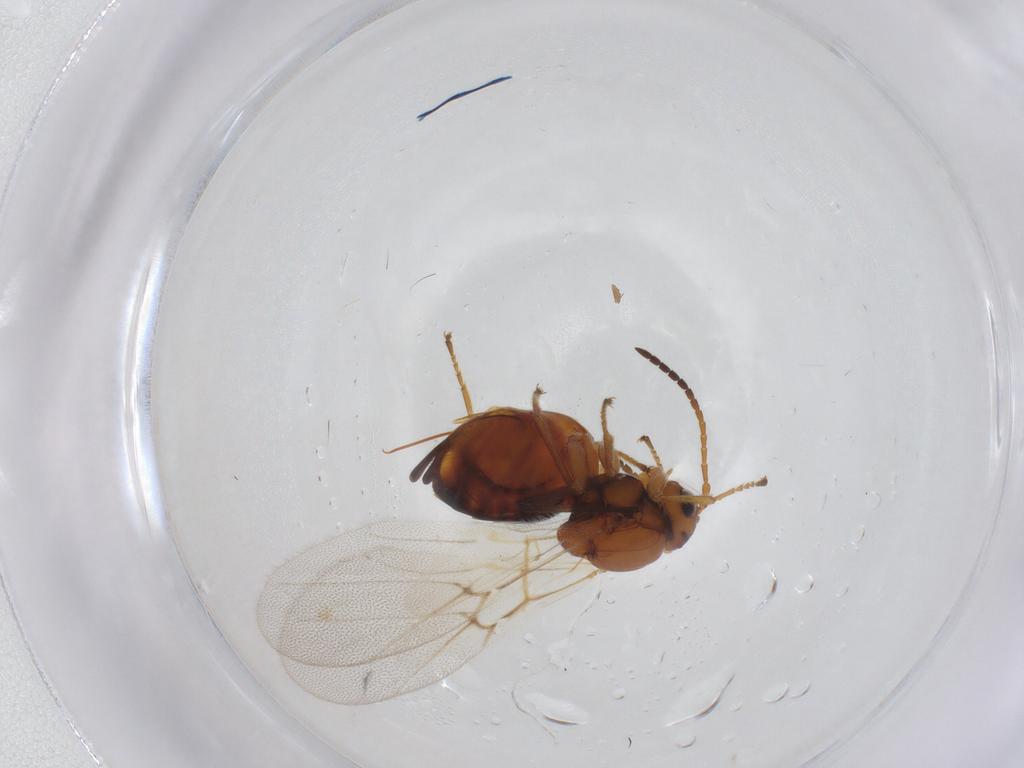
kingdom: Animalia
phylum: Arthropoda
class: Insecta
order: Hymenoptera
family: Cynipidae
